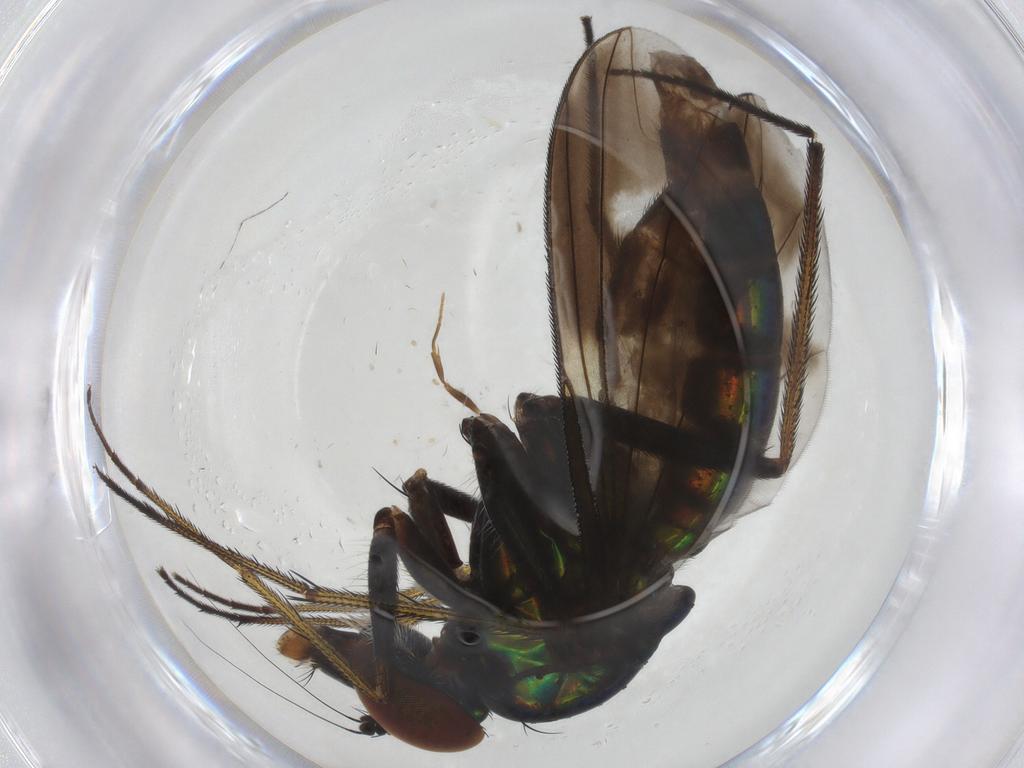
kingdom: Animalia
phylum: Arthropoda
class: Insecta
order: Diptera
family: Dolichopodidae
